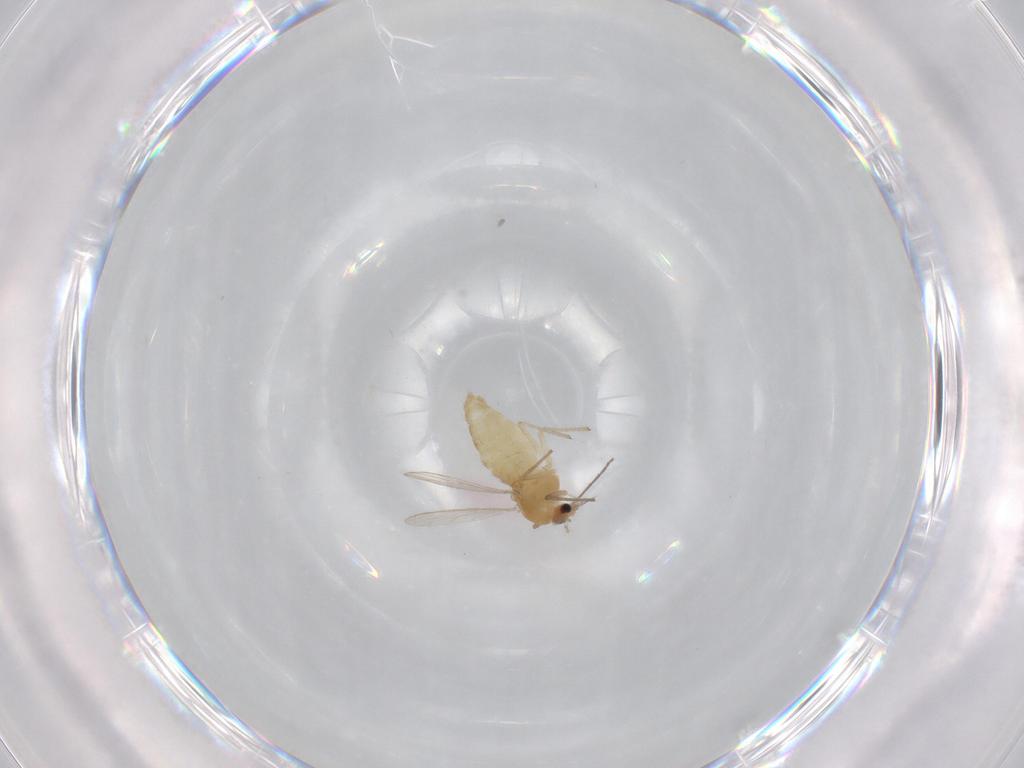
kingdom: Animalia
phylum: Arthropoda
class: Insecta
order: Diptera
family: Chironomidae
